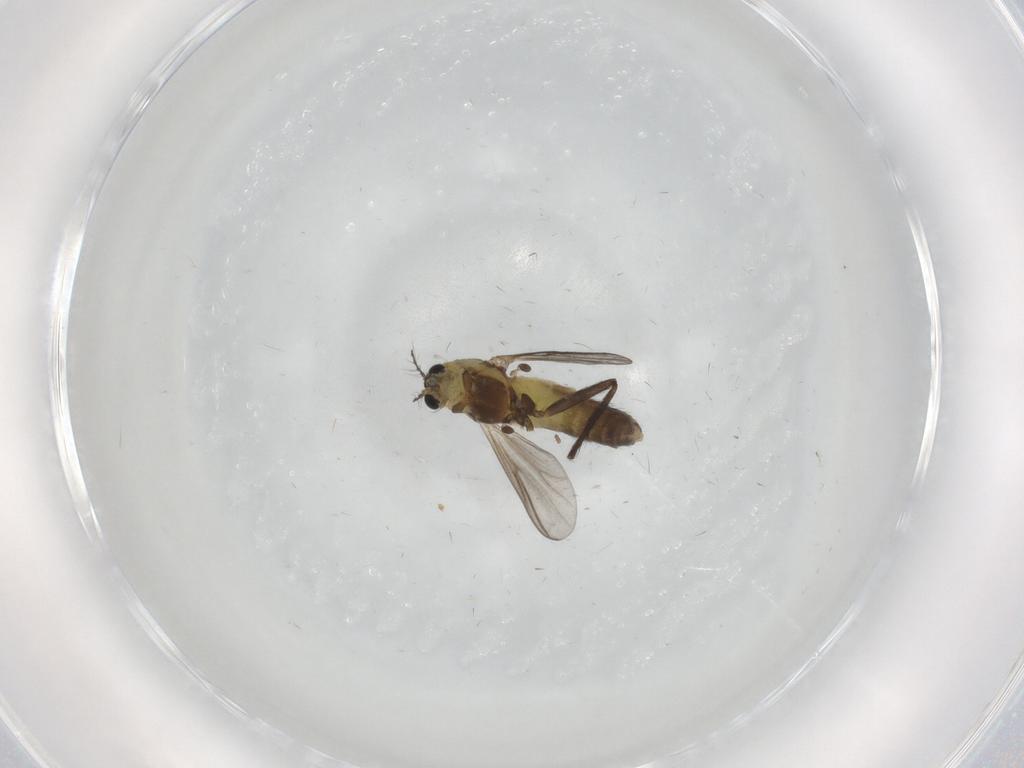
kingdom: Animalia
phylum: Arthropoda
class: Insecta
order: Diptera
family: Chironomidae
